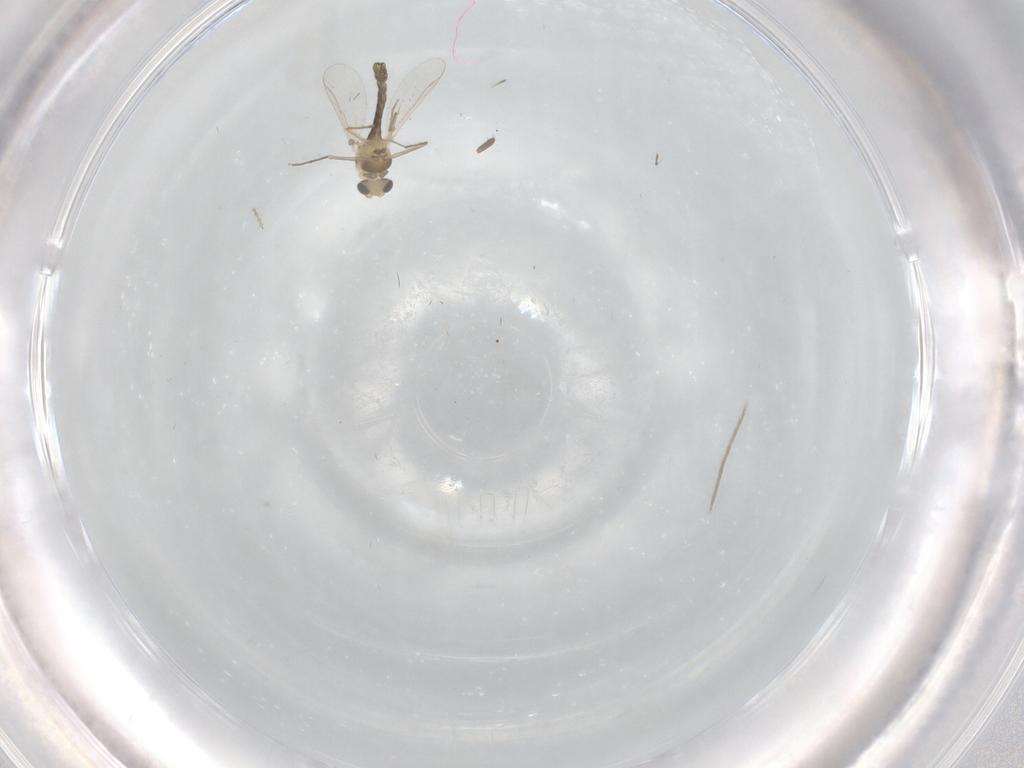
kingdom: Animalia
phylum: Arthropoda
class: Insecta
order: Diptera
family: Chironomidae
